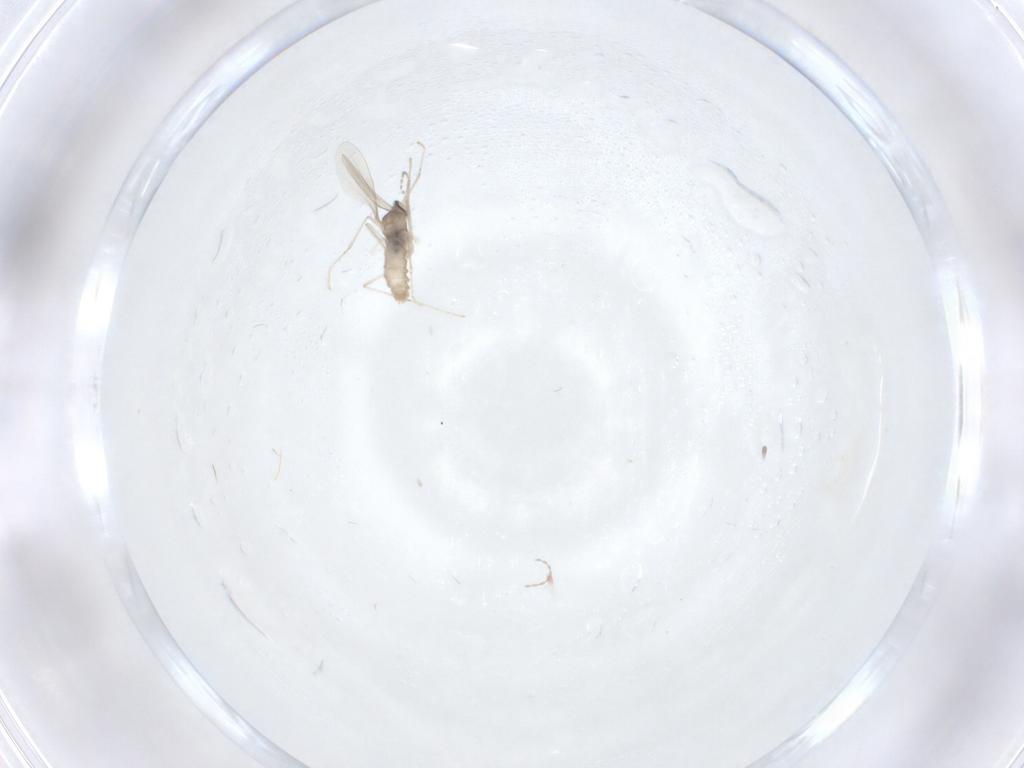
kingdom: Animalia
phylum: Arthropoda
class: Insecta
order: Diptera
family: Cecidomyiidae
